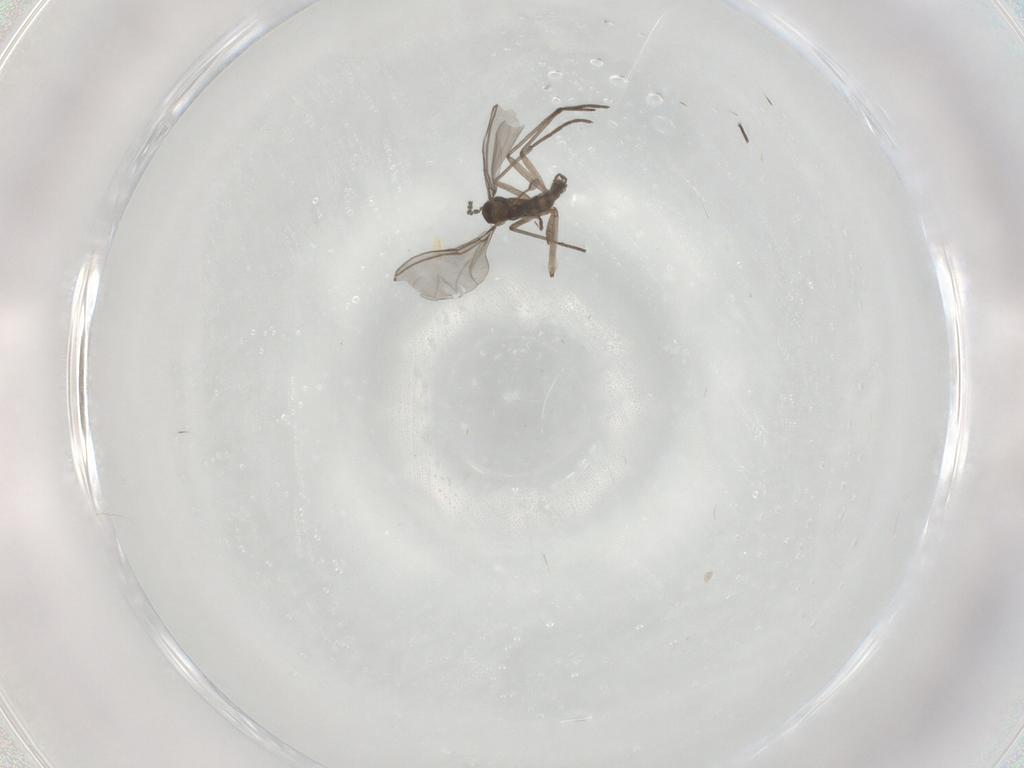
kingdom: Animalia
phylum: Arthropoda
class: Insecta
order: Diptera
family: Sciaridae
